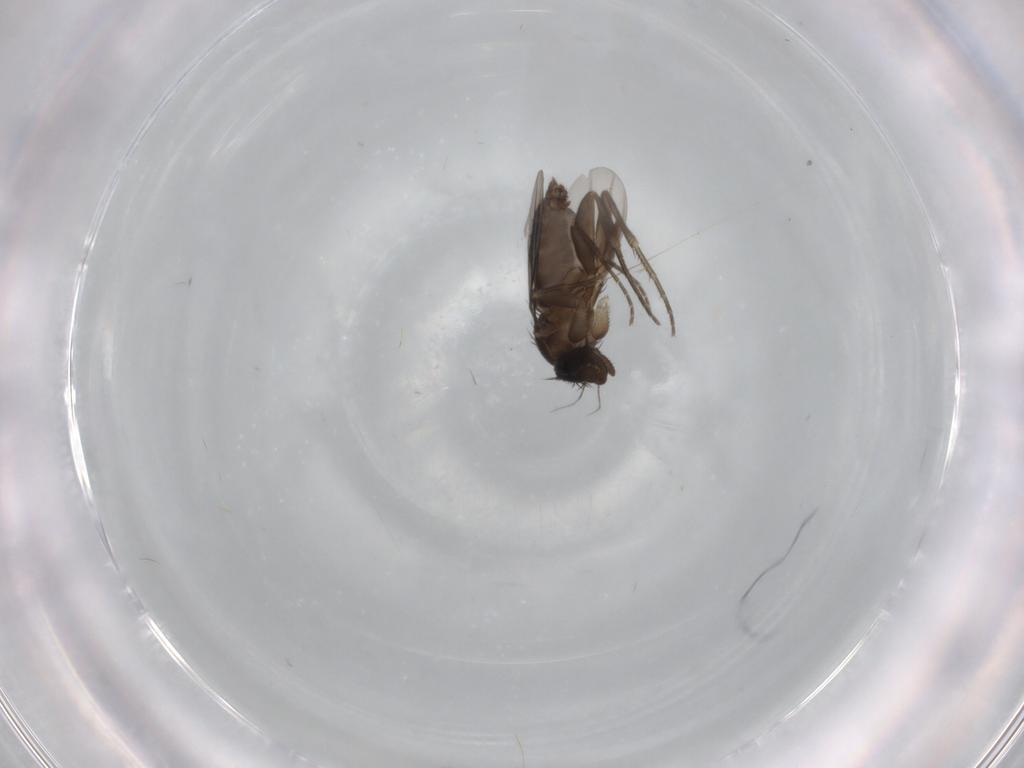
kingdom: Animalia
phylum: Arthropoda
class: Insecta
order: Diptera
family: Phoridae
